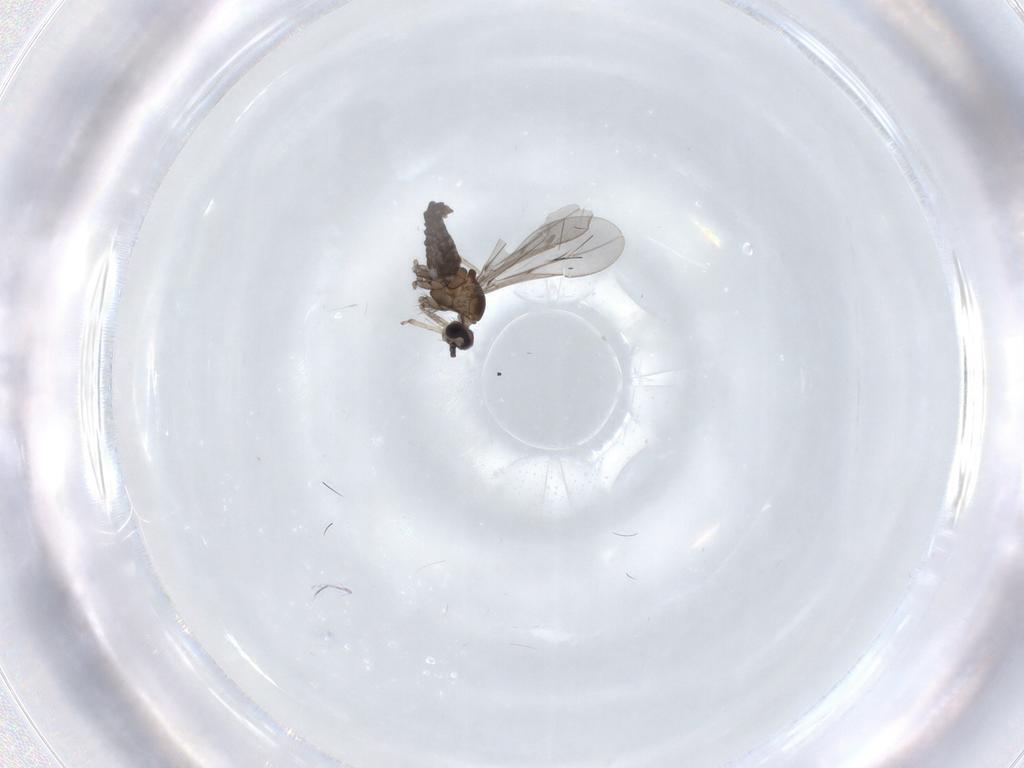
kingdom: Animalia
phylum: Arthropoda
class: Insecta
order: Diptera
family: Cecidomyiidae
